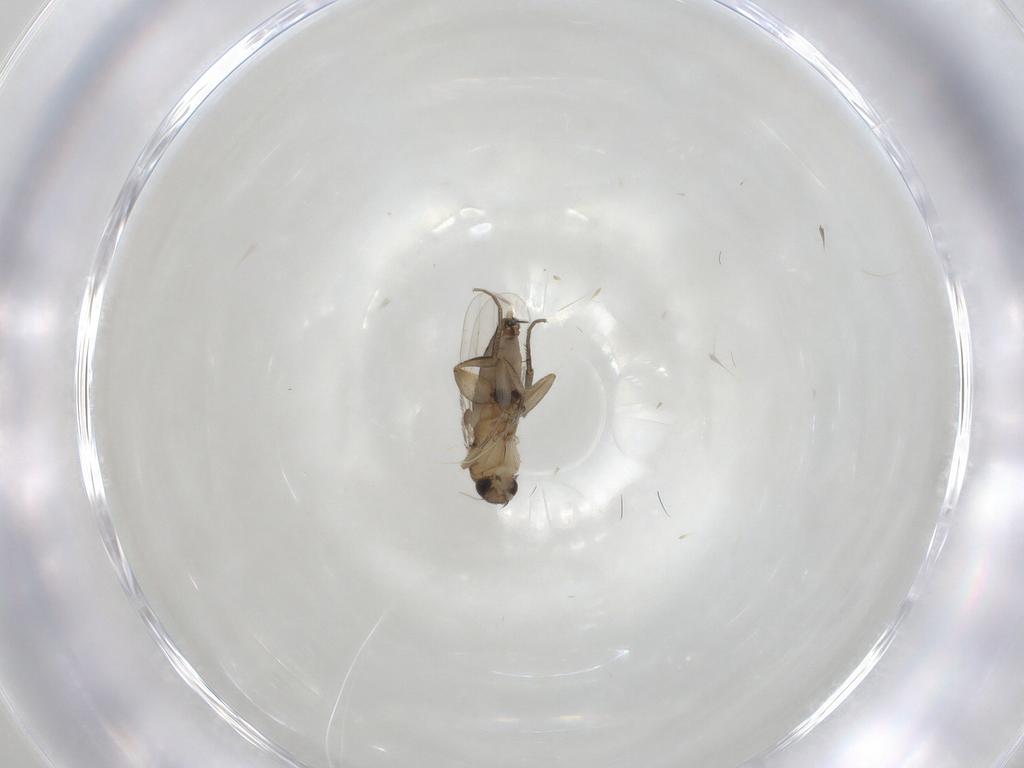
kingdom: Animalia
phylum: Arthropoda
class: Insecta
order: Diptera
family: Phoridae
